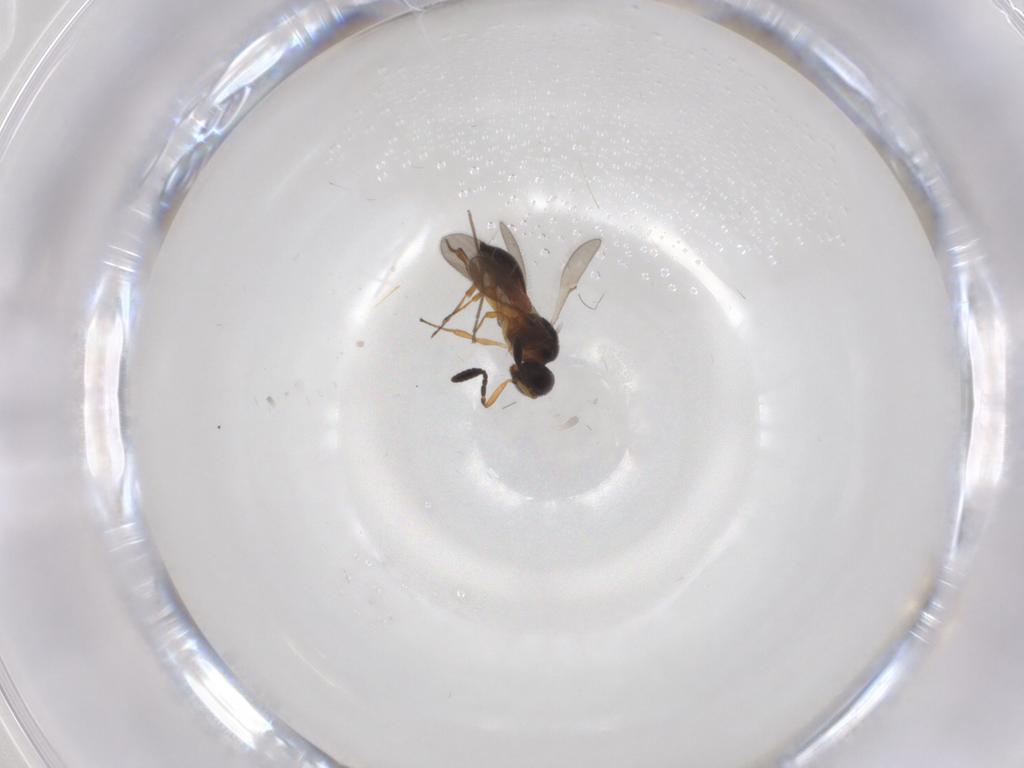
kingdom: Animalia
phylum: Arthropoda
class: Insecta
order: Hymenoptera
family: Scelionidae
